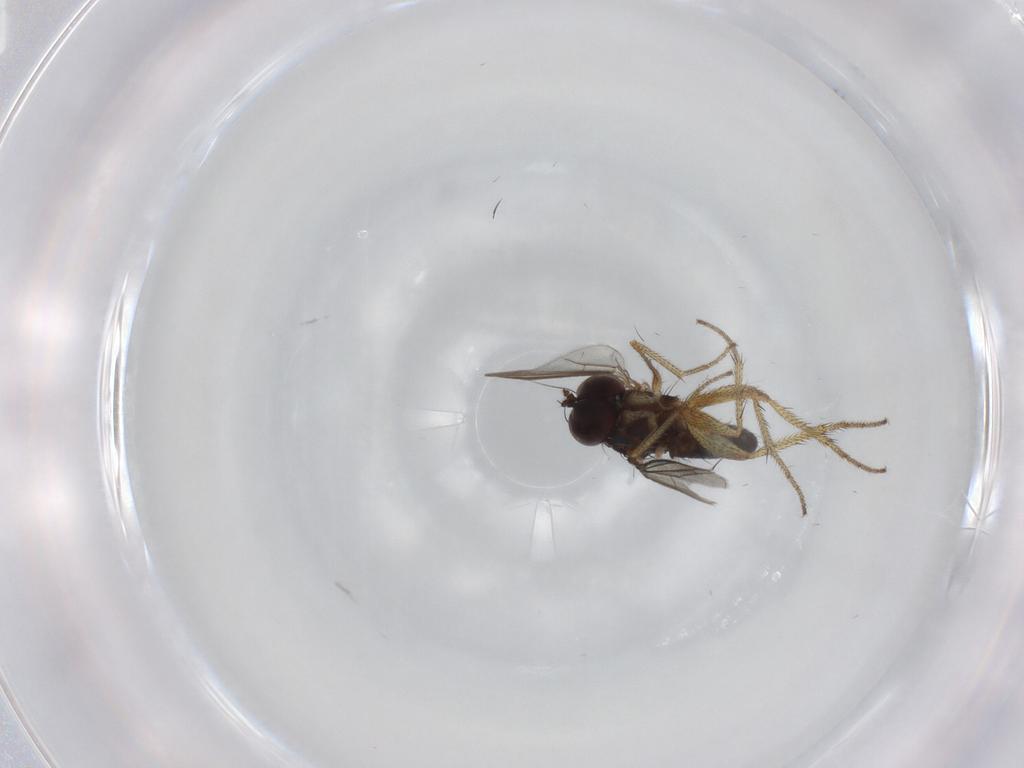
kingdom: Animalia
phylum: Arthropoda
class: Insecta
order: Diptera
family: Dolichopodidae
